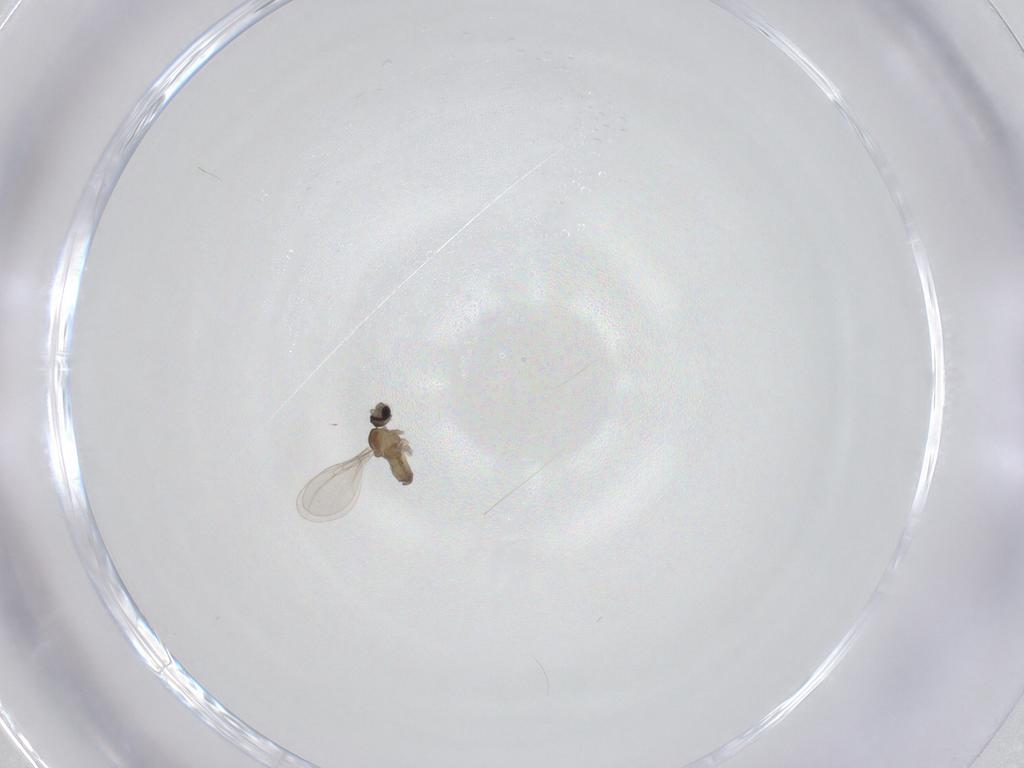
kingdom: Animalia
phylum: Arthropoda
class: Insecta
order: Diptera
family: Cecidomyiidae
